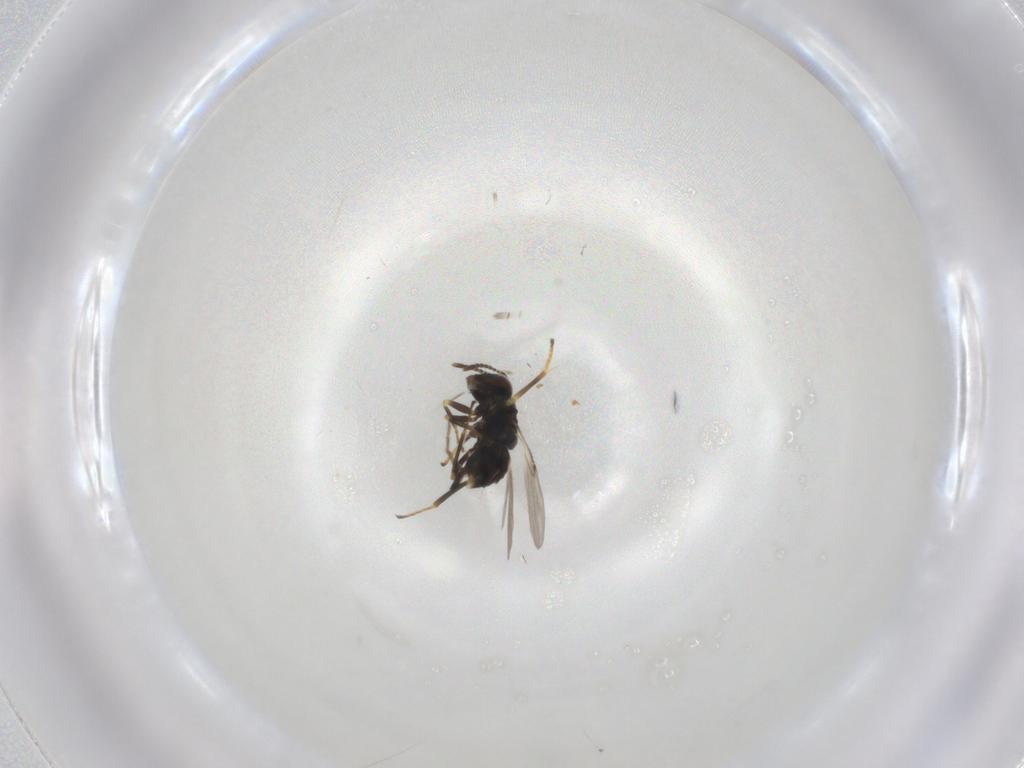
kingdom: Animalia
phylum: Arthropoda
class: Insecta
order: Hymenoptera
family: Encyrtidae
